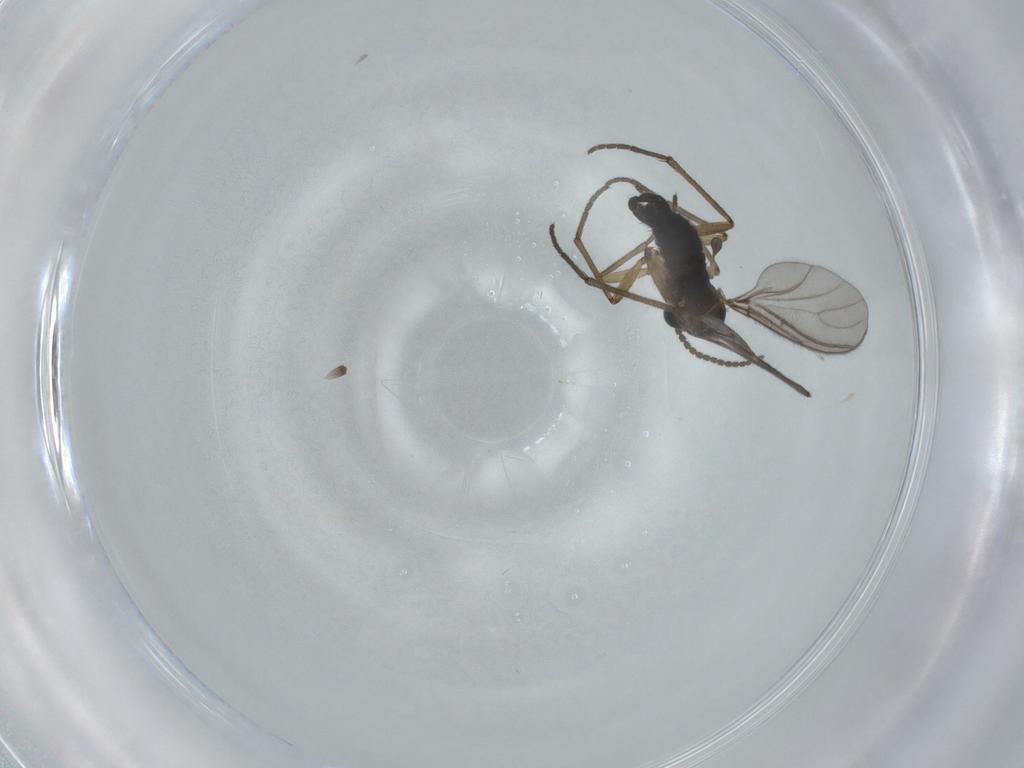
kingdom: Animalia
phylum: Arthropoda
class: Insecta
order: Diptera
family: Sciaridae
